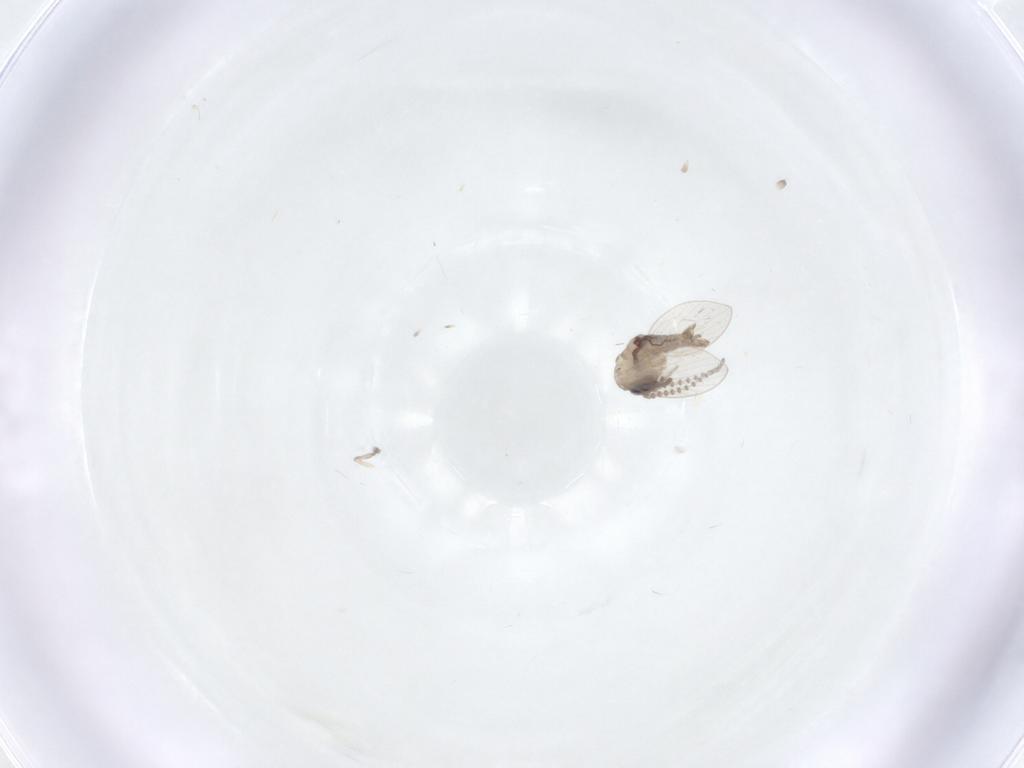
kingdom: Animalia
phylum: Arthropoda
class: Insecta
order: Diptera
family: Psychodidae
